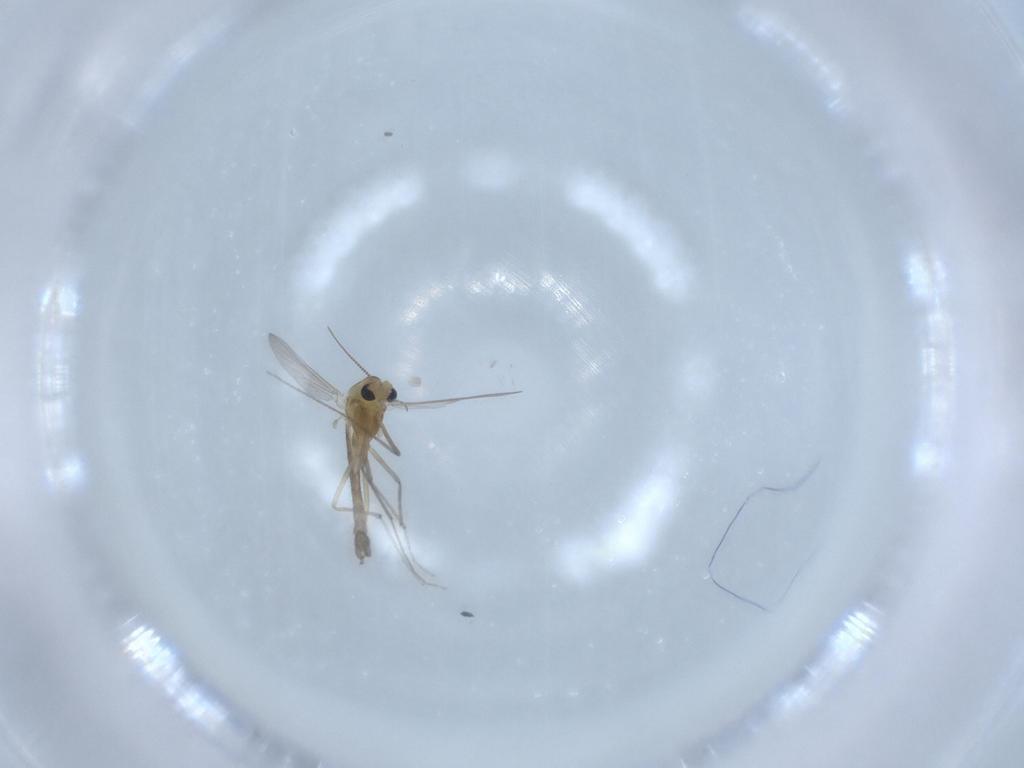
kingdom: Animalia
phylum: Arthropoda
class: Insecta
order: Diptera
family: Chironomidae
